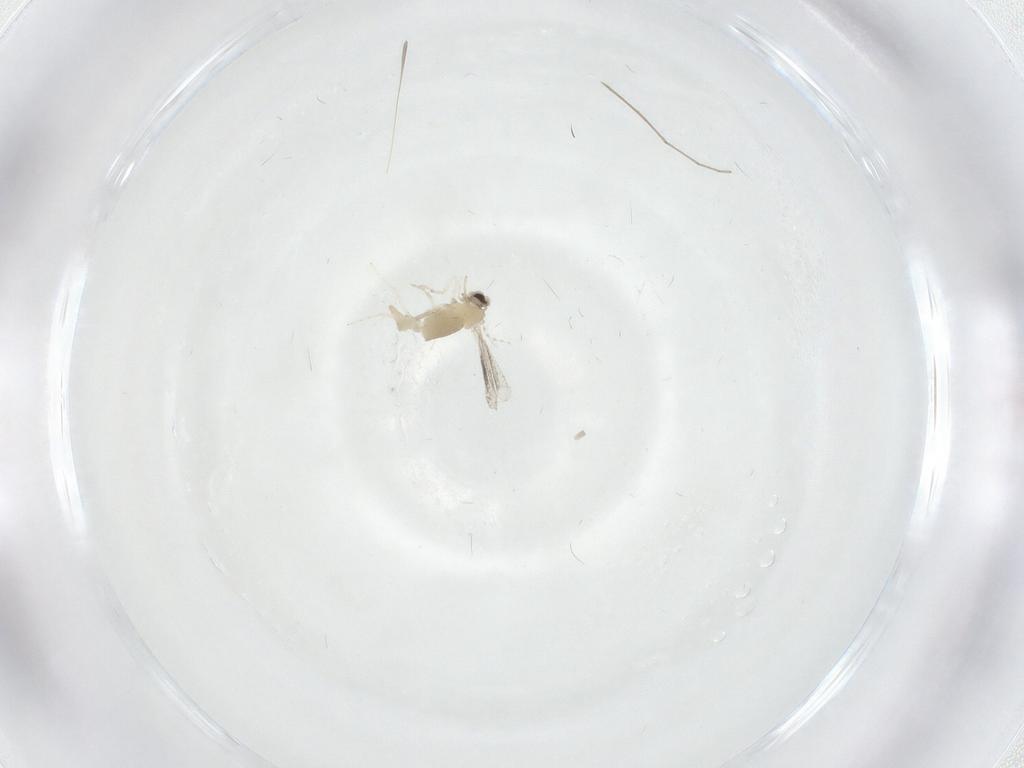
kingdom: Animalia
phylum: Arthropoda
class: Insecta
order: Diptera
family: Cecidomyiidae
